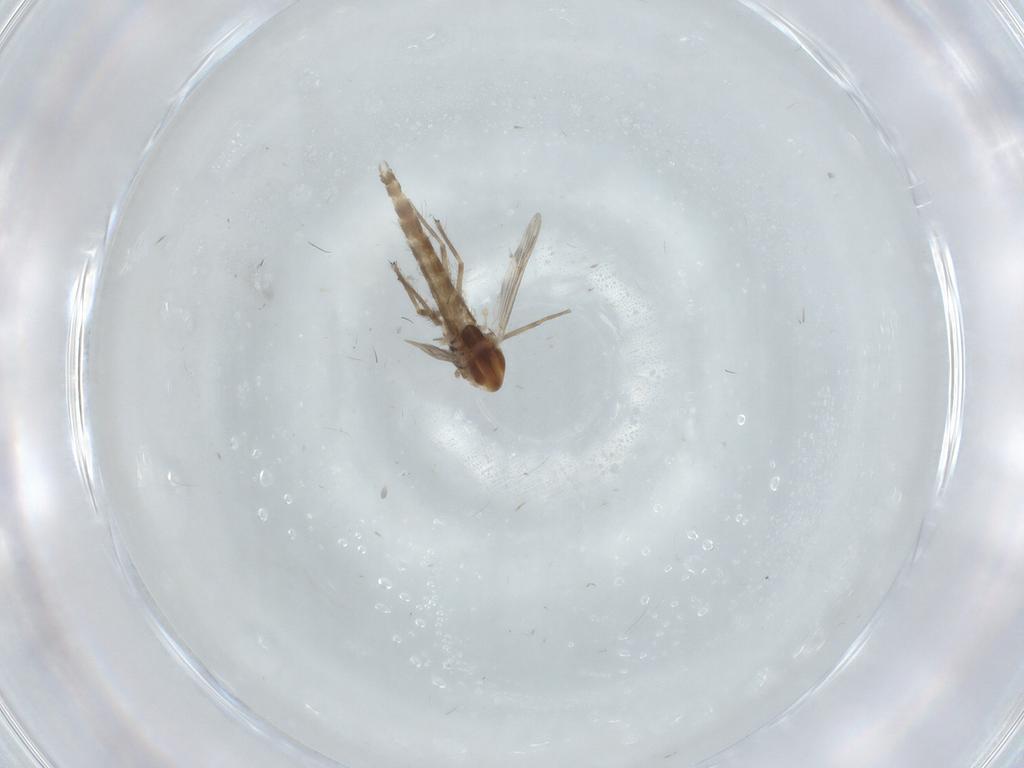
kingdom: Animalia
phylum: Arthropoda
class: Insecta
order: Diptera
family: Chironomidae
